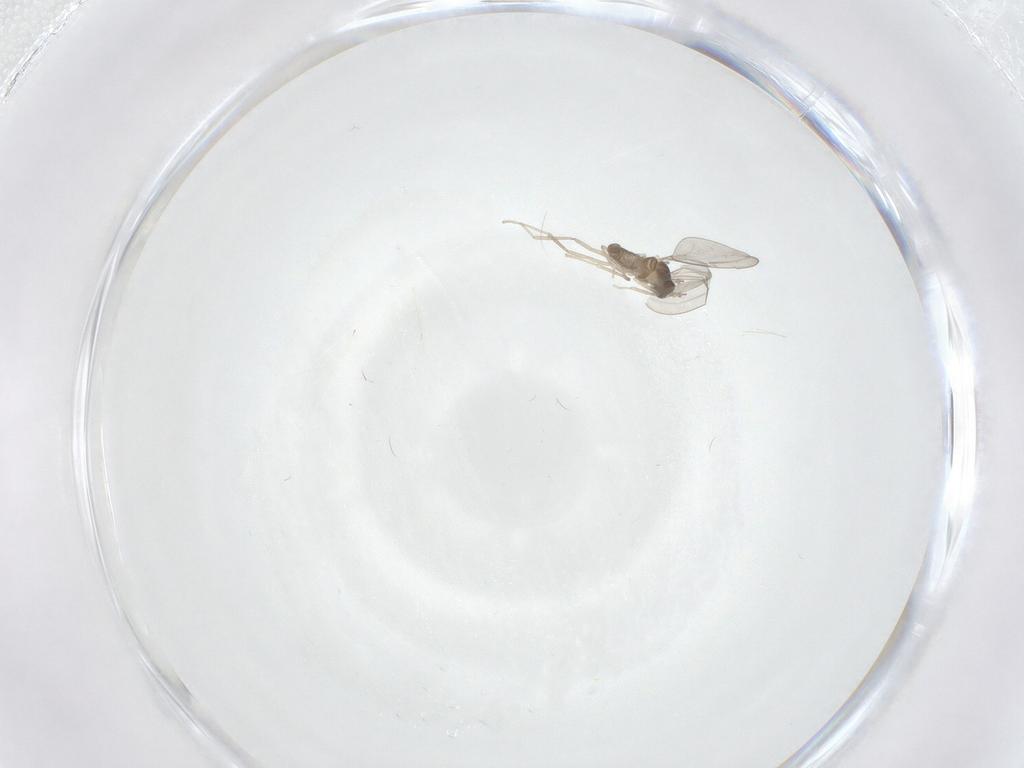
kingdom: Animalia
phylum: Arthropoda
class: Insecta
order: Diptera
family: Cecidomyiidae
